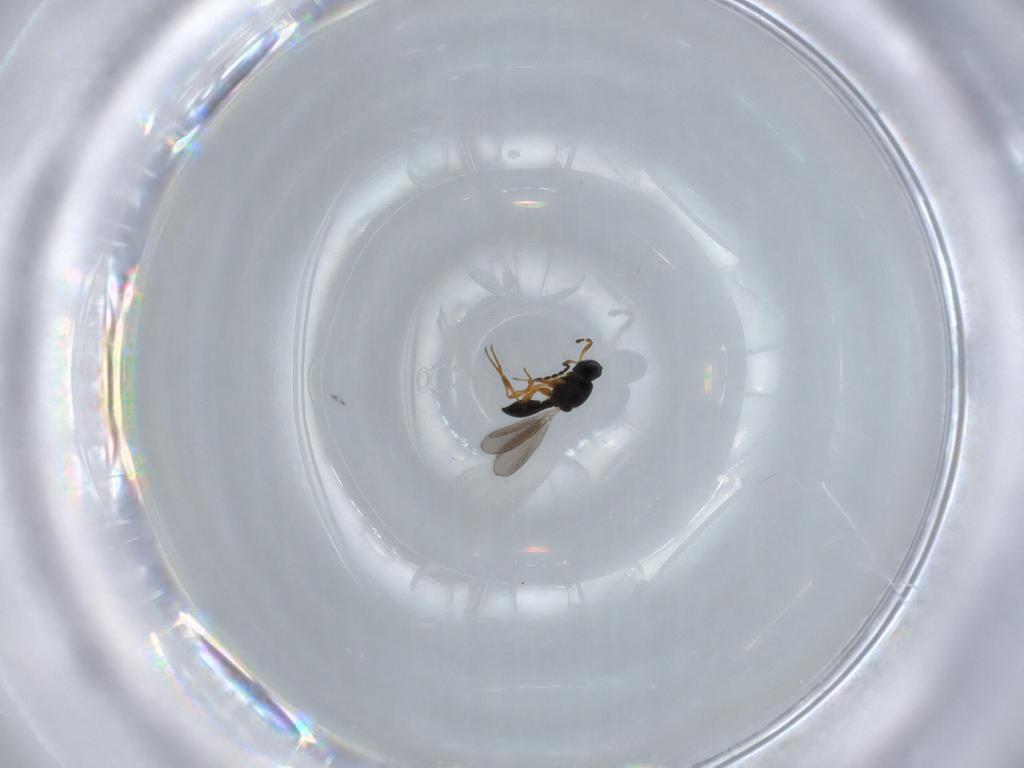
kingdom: Animalia
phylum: Arthropoda
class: Insecta
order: Hymenoptera
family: Platygastridae
